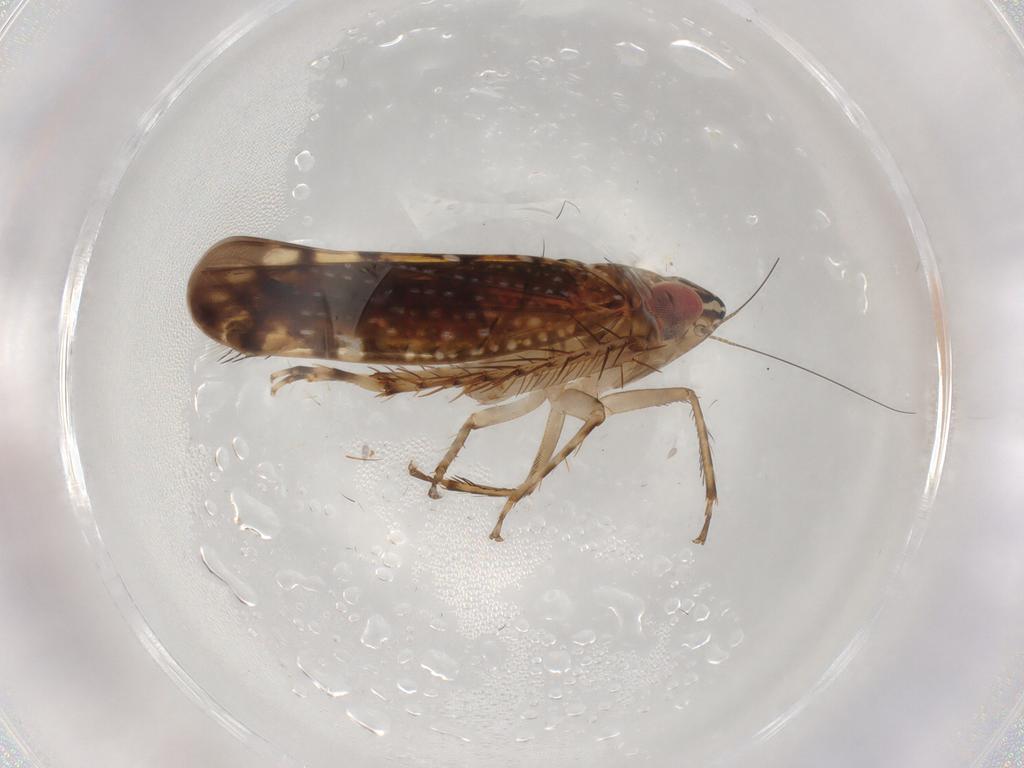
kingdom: Animalia
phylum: Arthropoda
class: Insecta
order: Hemiptera
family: Cicadellidae
